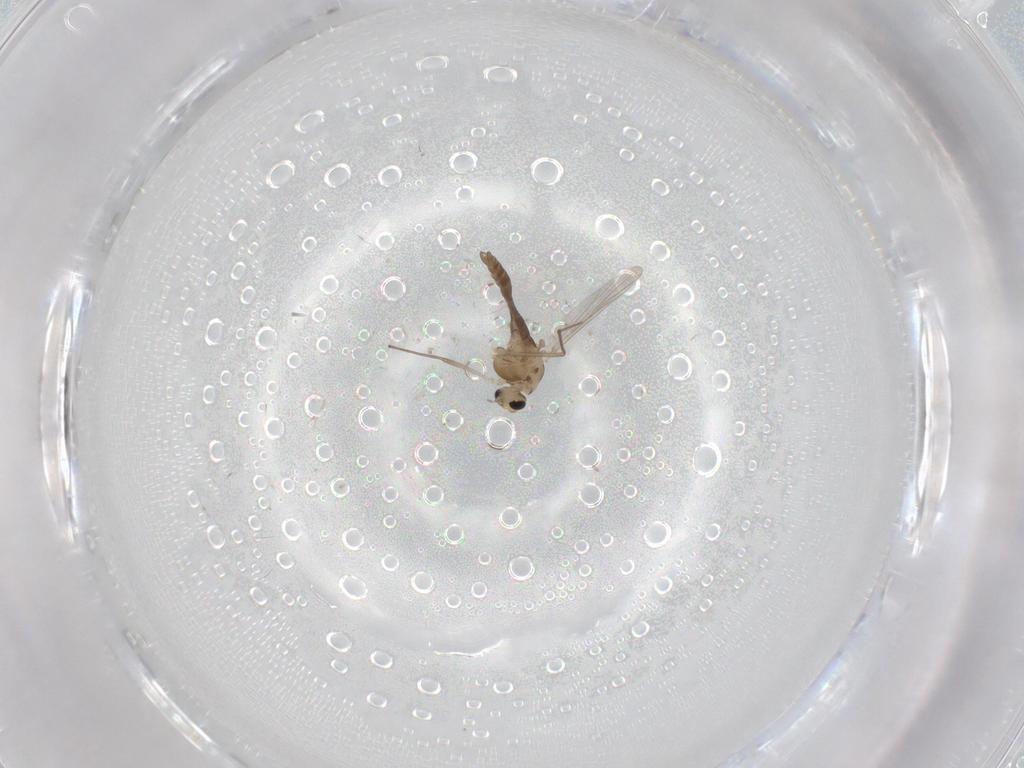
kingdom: Animalia
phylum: Arthropoda
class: Insecta
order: Diptera
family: Chironomidae
